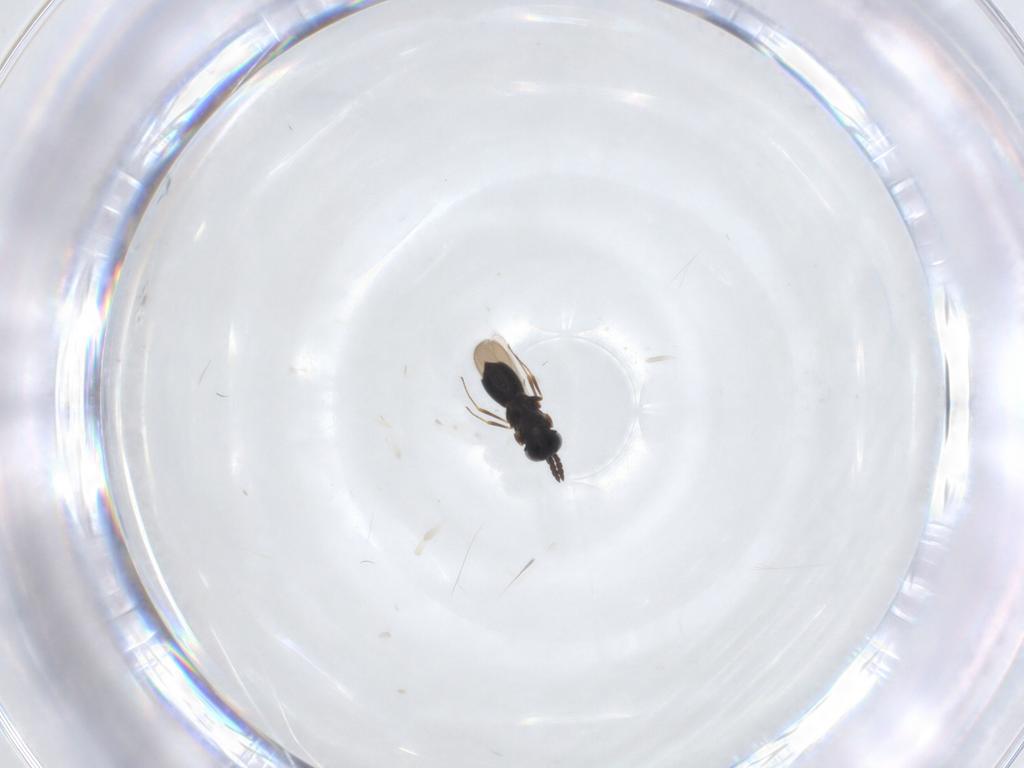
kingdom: Animalia
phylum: Arthropoda
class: Insecta
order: Hymenoptera
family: Scelionidae
